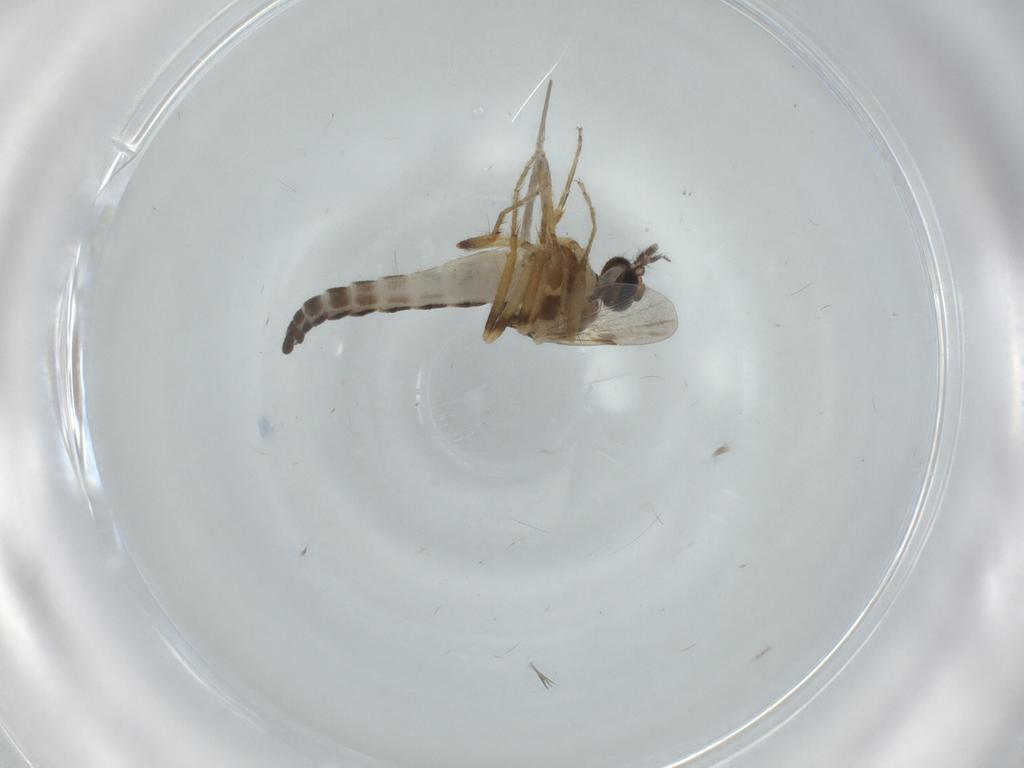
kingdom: Animalia
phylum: Arthropoda
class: Insecta
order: Diptera
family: Ceratopogonidae
